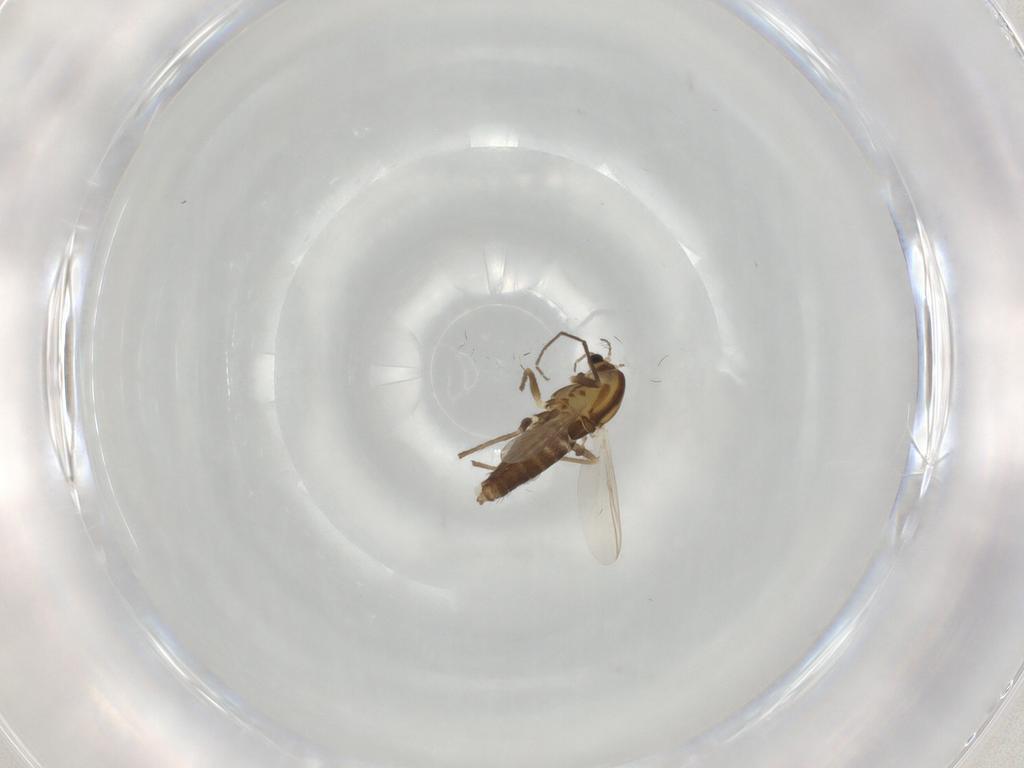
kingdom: Animalia
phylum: Arthropoda
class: Insecta
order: Diptera
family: Chironomidae
